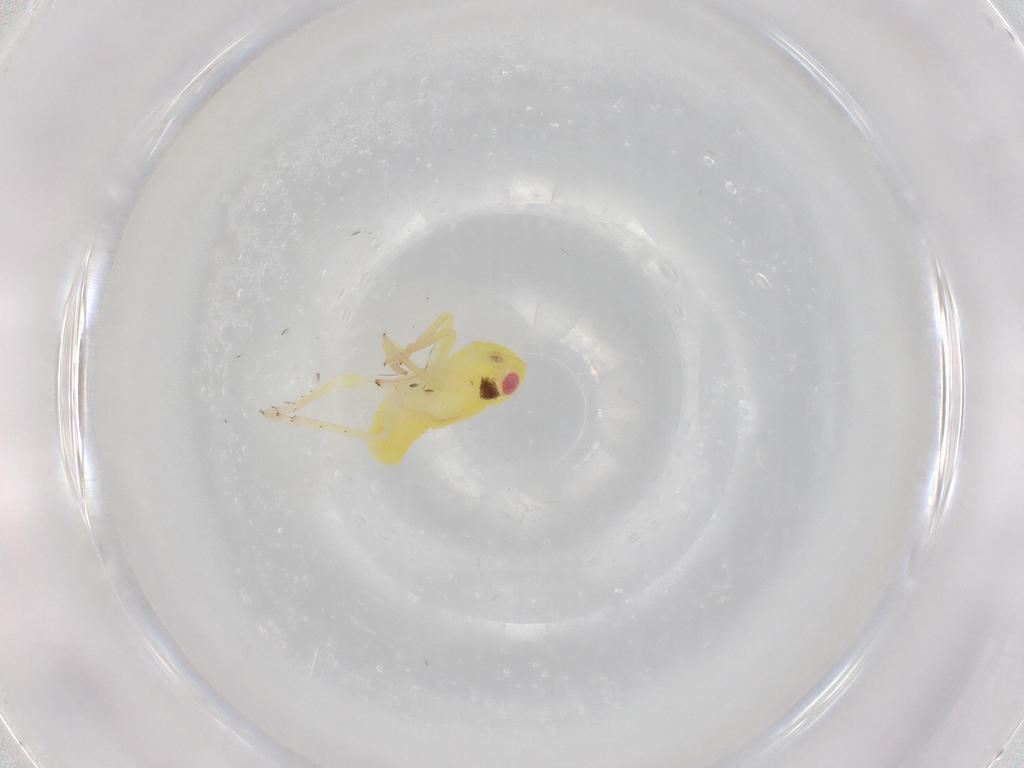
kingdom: Animalia
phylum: Arthropoda
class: Insecta
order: Hemiptera
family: Tropiduchidae
